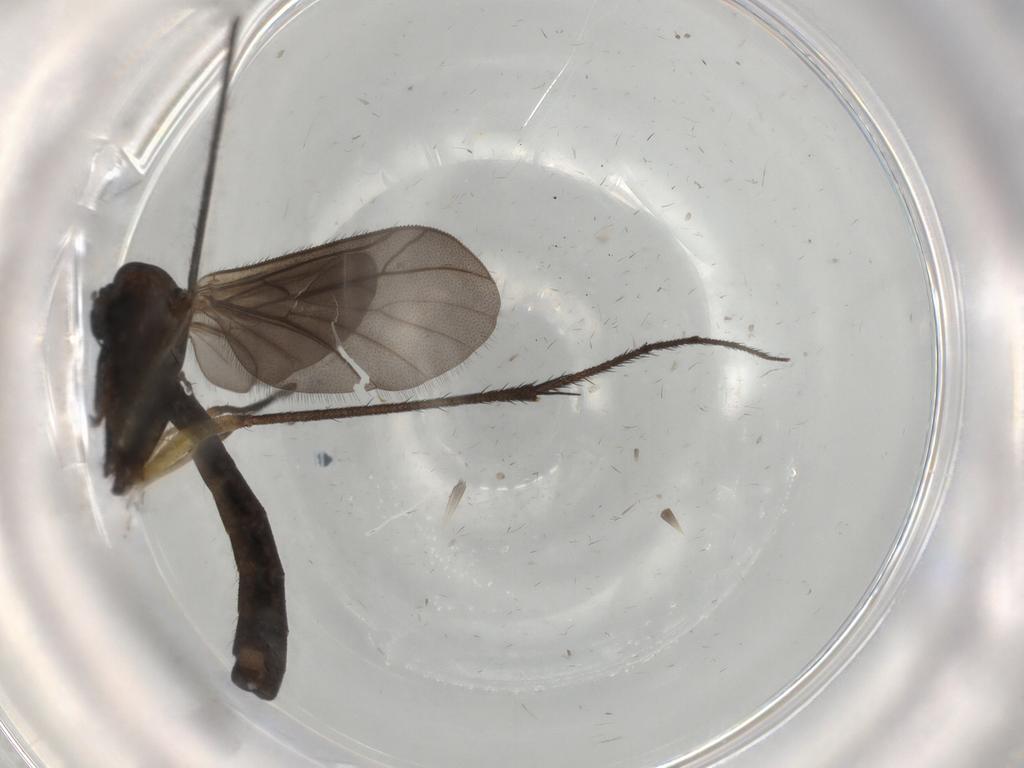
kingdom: Animalia
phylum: Arthropoda
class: Insecta
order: Diptera
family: Ditomyiidae
